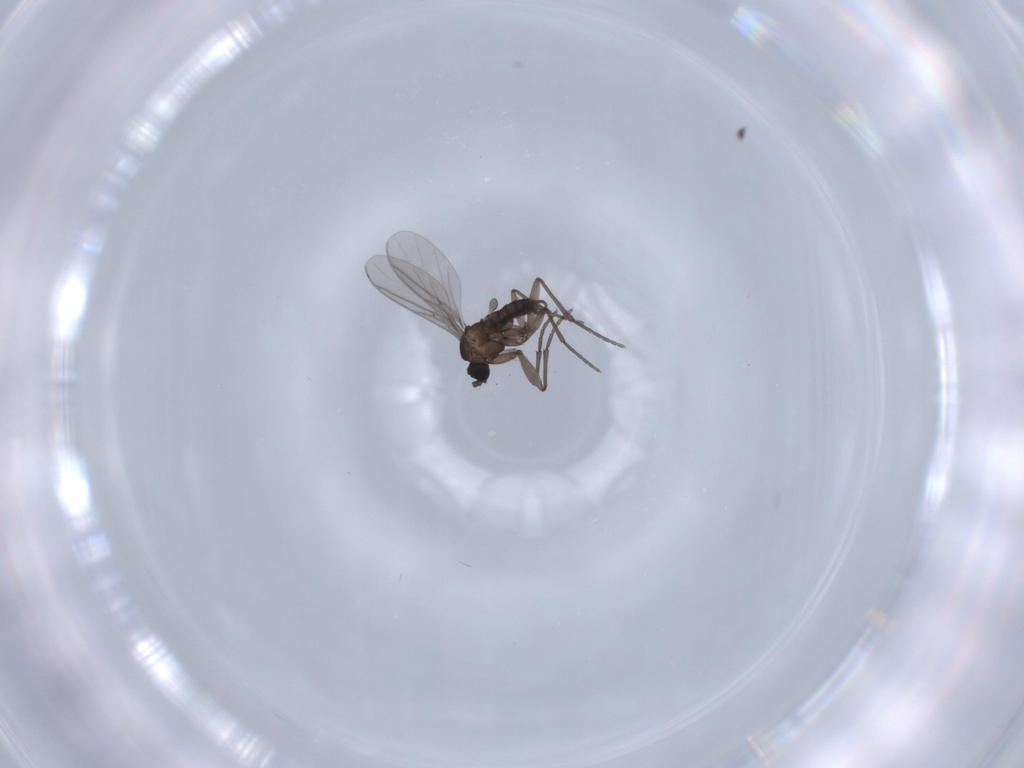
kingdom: Animalia
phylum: Arthropoda
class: Insecta
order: Diptera
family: Sciaridae
